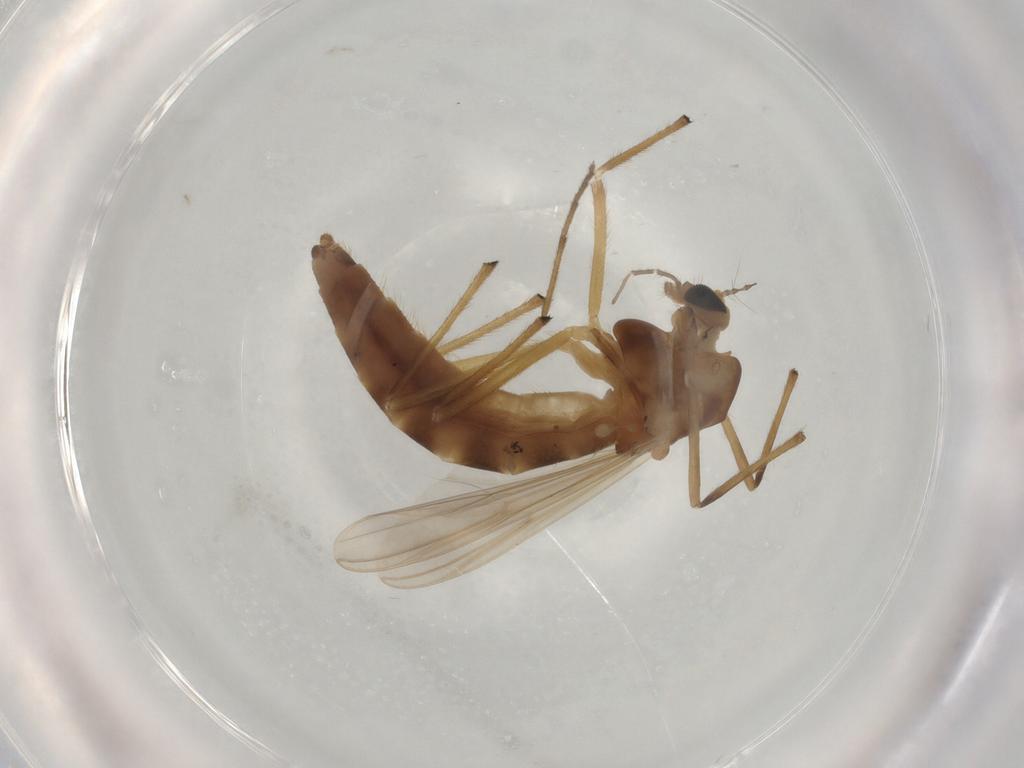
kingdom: Animalia
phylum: Arthropoda
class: Insecta
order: Diptera
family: Chironomidae
